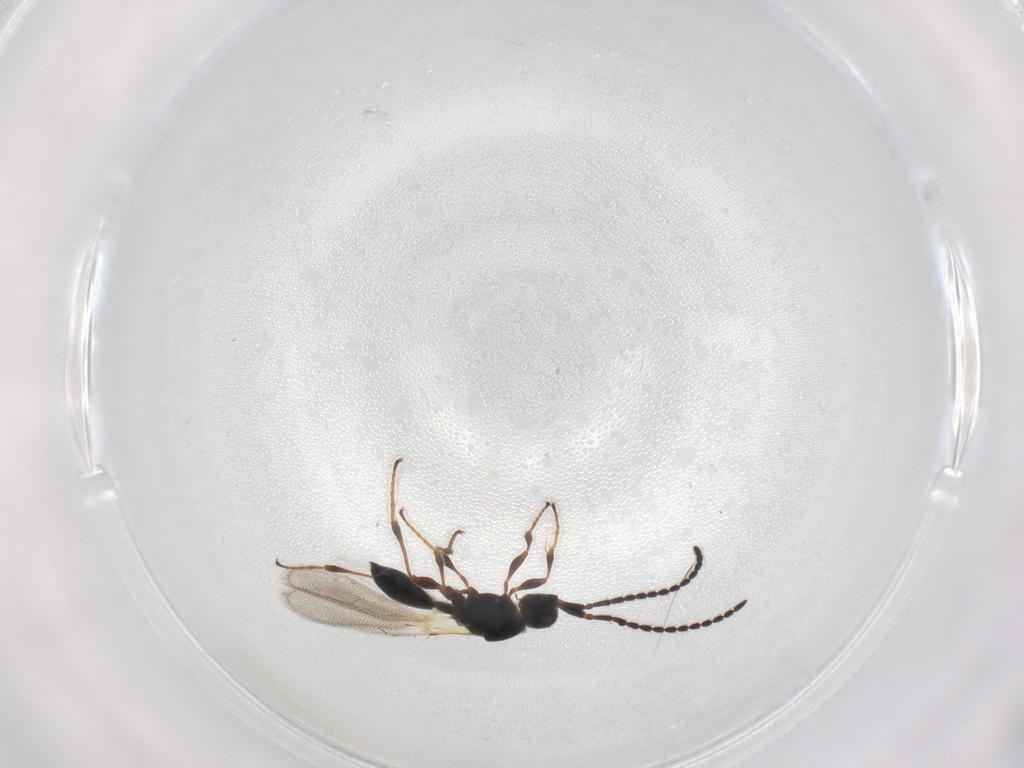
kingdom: Animalia
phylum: Arthropoda
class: Insecta
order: Hymenoptera
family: Diapriidae
